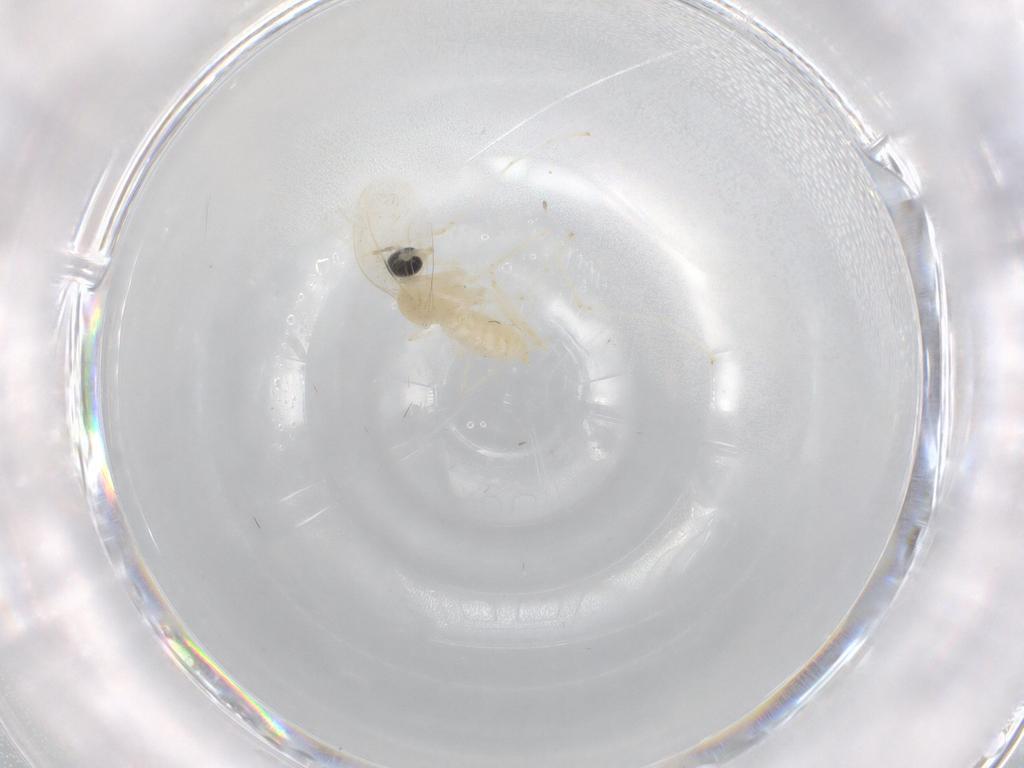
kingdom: Animalia
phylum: Arthropoda
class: Insecta
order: Diptera
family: Cecidomyiidae
